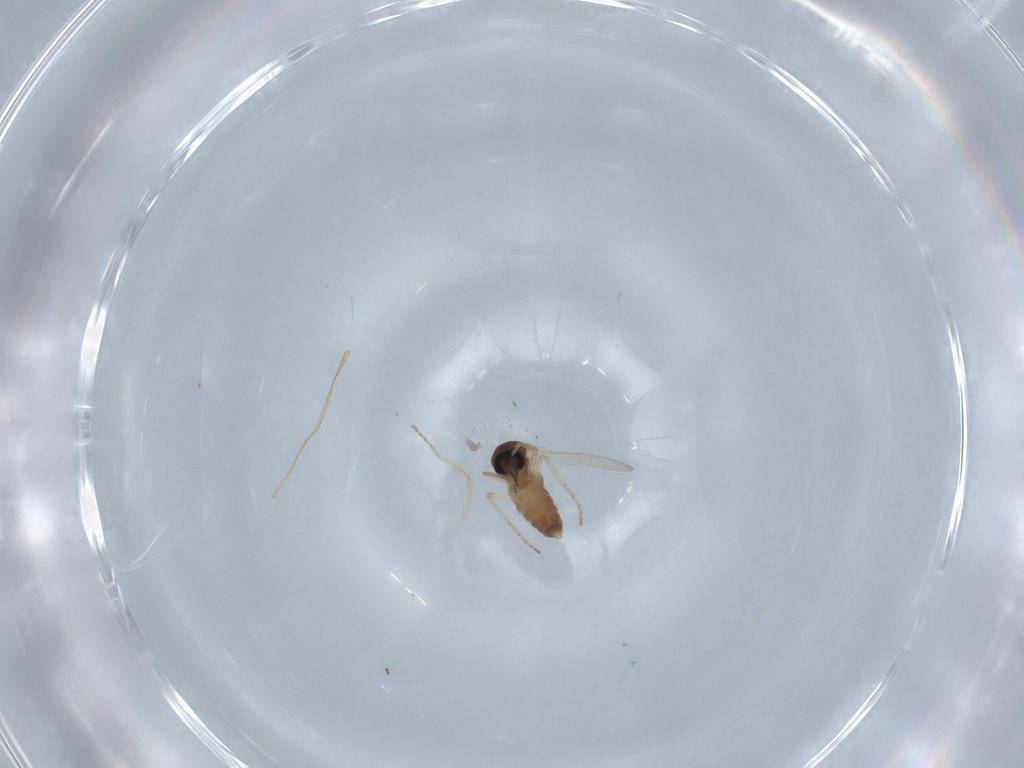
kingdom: Animalia
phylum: Arthropoda
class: Insecta
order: Diptera
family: Ceratopogonidae
